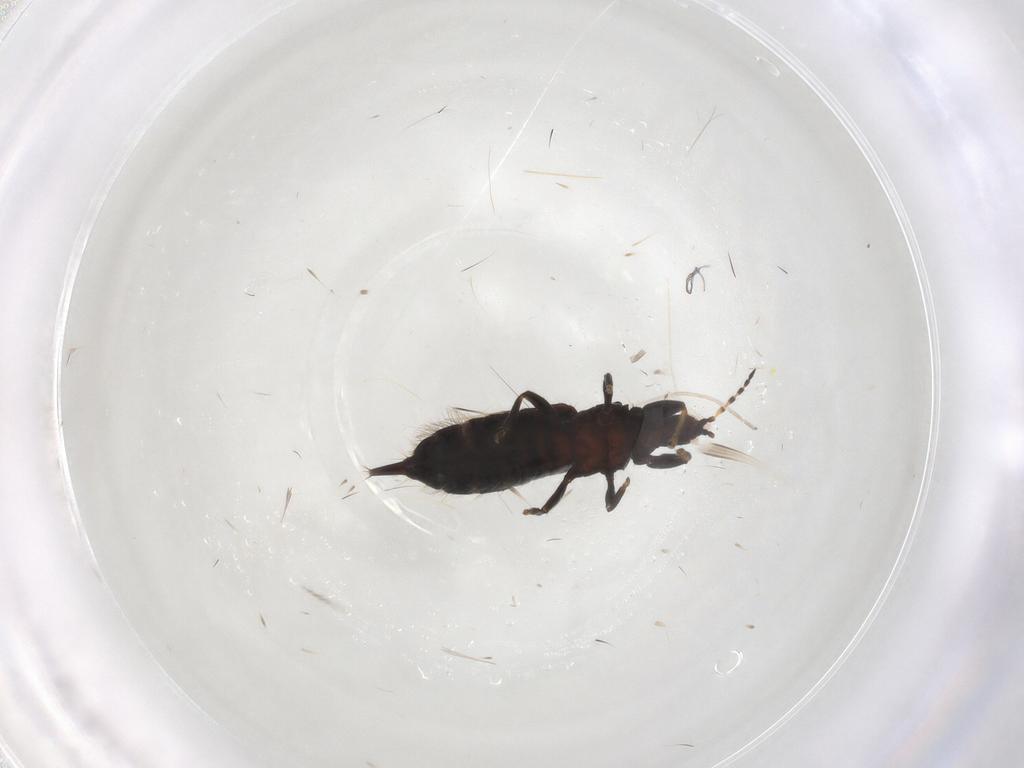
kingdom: Animalia
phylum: Arthropoda
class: Insecta
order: Thysanoptera
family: Phlaeothripidae
